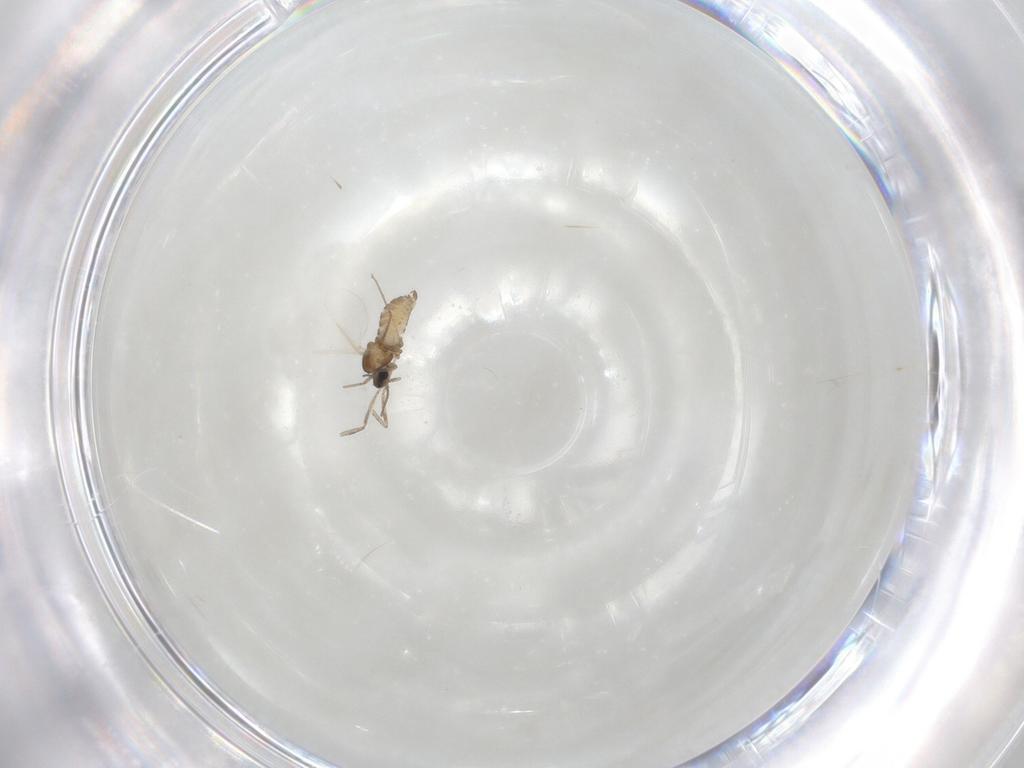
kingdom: Animalia
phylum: Arthropoda
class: Insecta
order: Diptera
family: Cecidomyiidae
